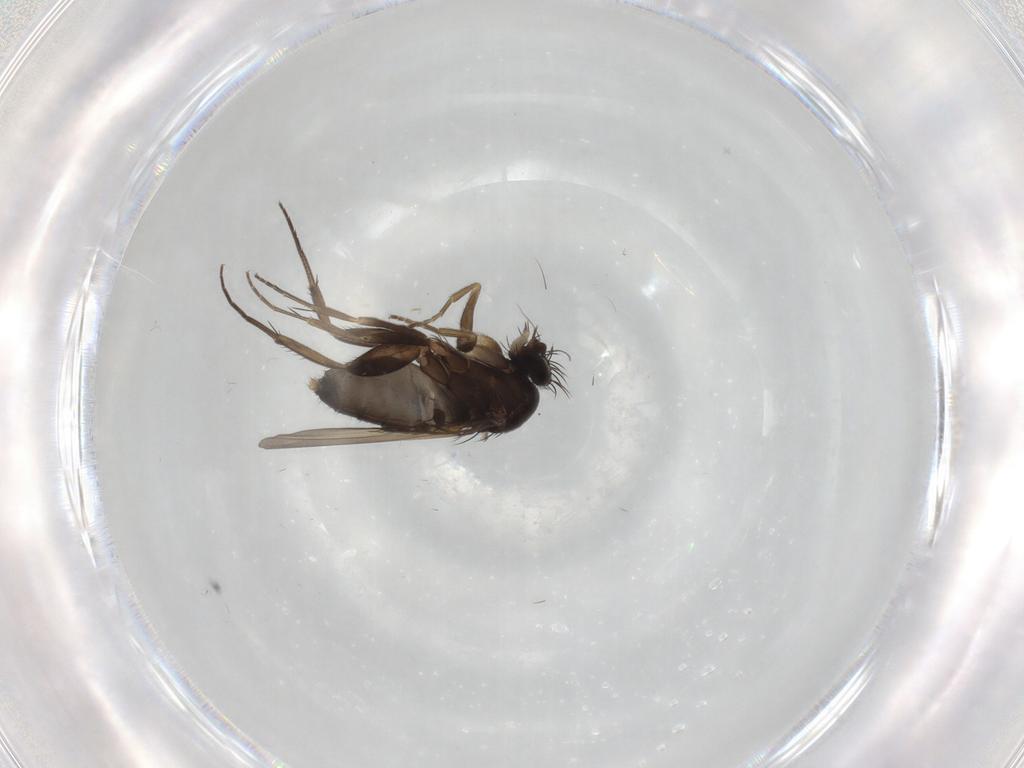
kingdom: Animalia
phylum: Arthropoda
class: Insecta
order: Diptera
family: Phoridae
